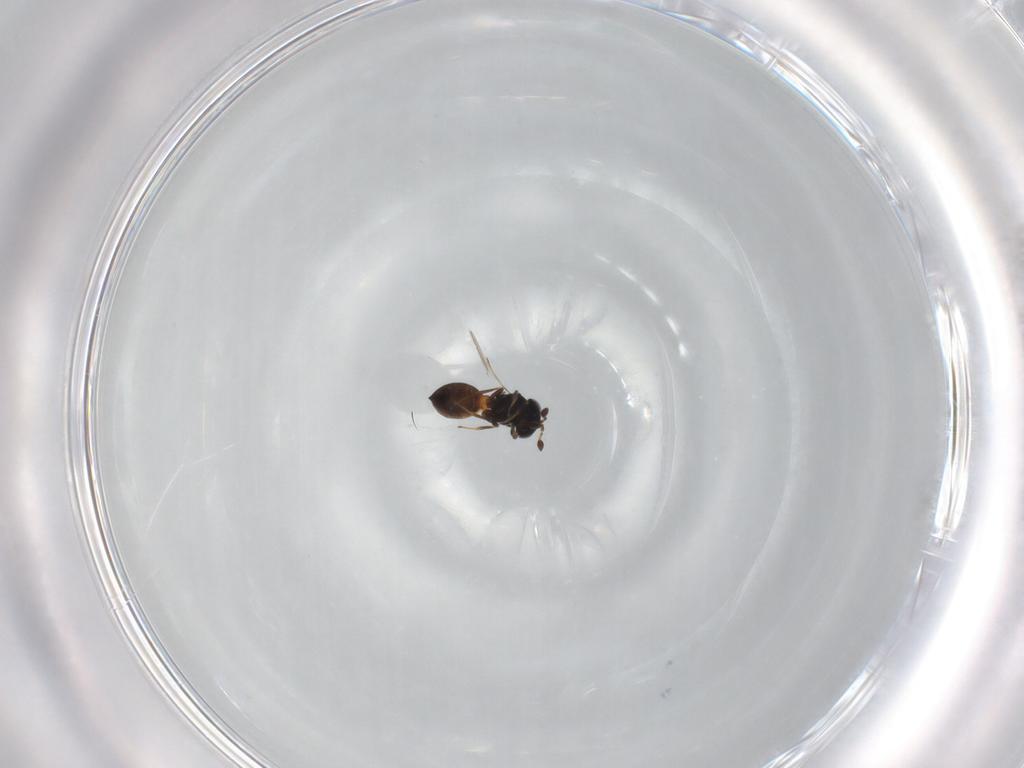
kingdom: Animalia
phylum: Arthropoda
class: Insecta
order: Hymenoptera
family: Scelionidae
